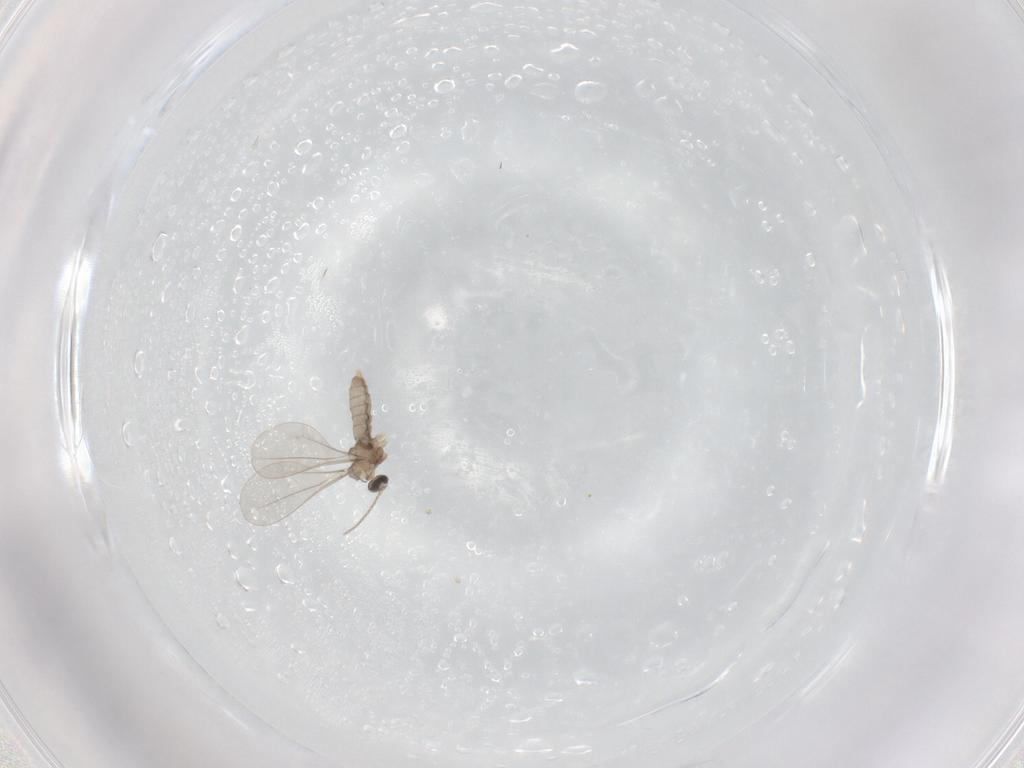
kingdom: Animalia
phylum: Arthropoda
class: Insecta
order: Diptera
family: Cecidomyiidae
